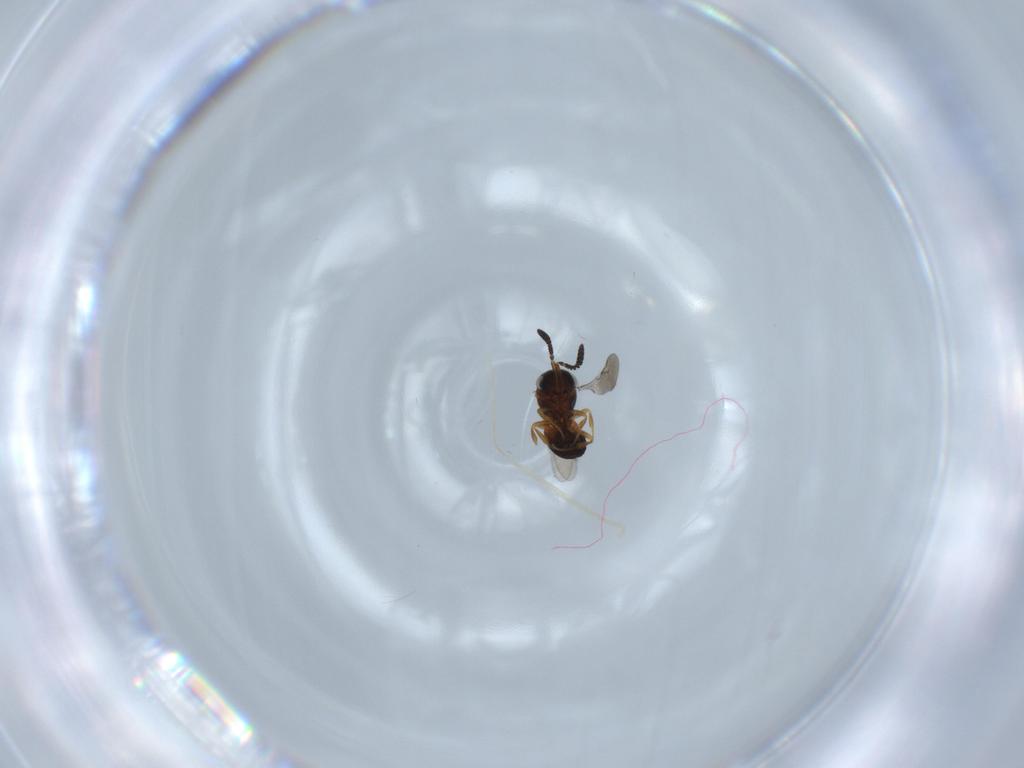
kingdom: Animalia
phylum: Arthropoda
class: Insecta
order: Hymenoptera
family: Scelionidae
